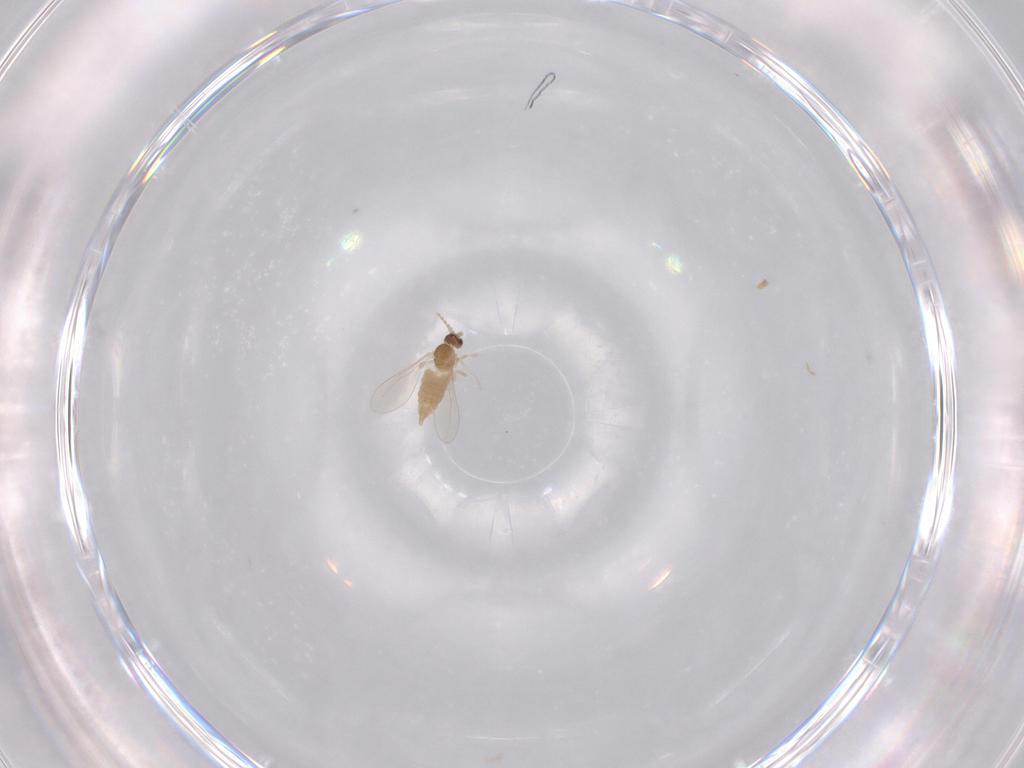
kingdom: Animalia
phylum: Arthropoda
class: Insecta
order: Diptera
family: Cecidomyiidae
